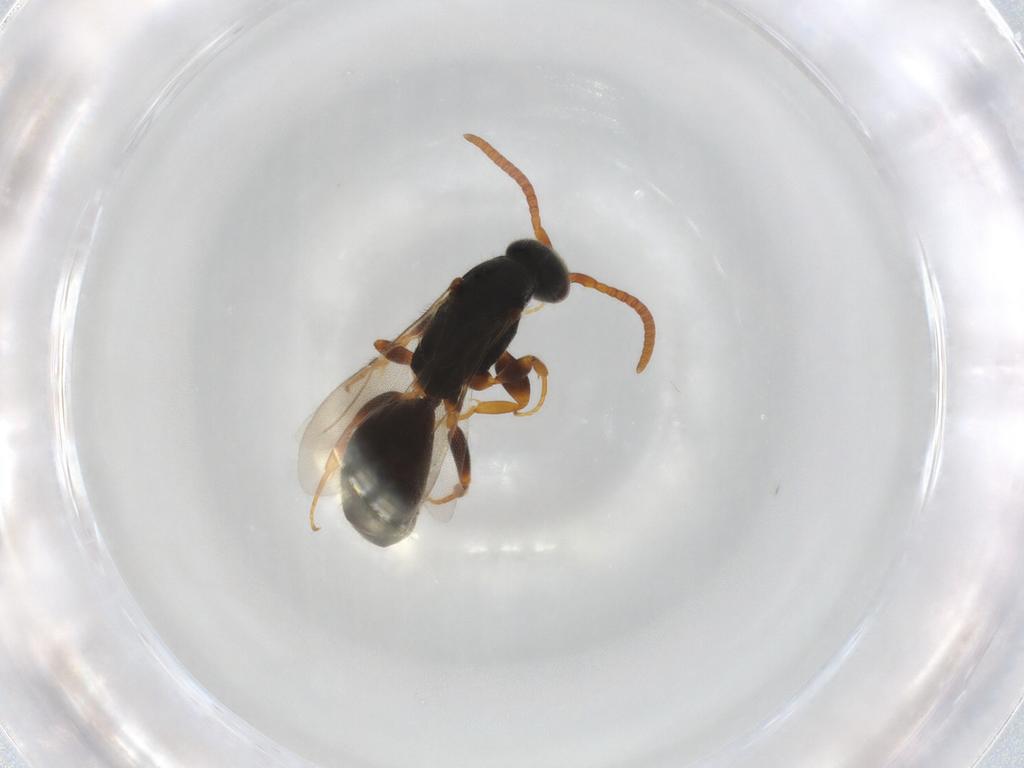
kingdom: Animalia
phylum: Arthropoda
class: Insecta
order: Hymenoptera
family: Bethylidae
